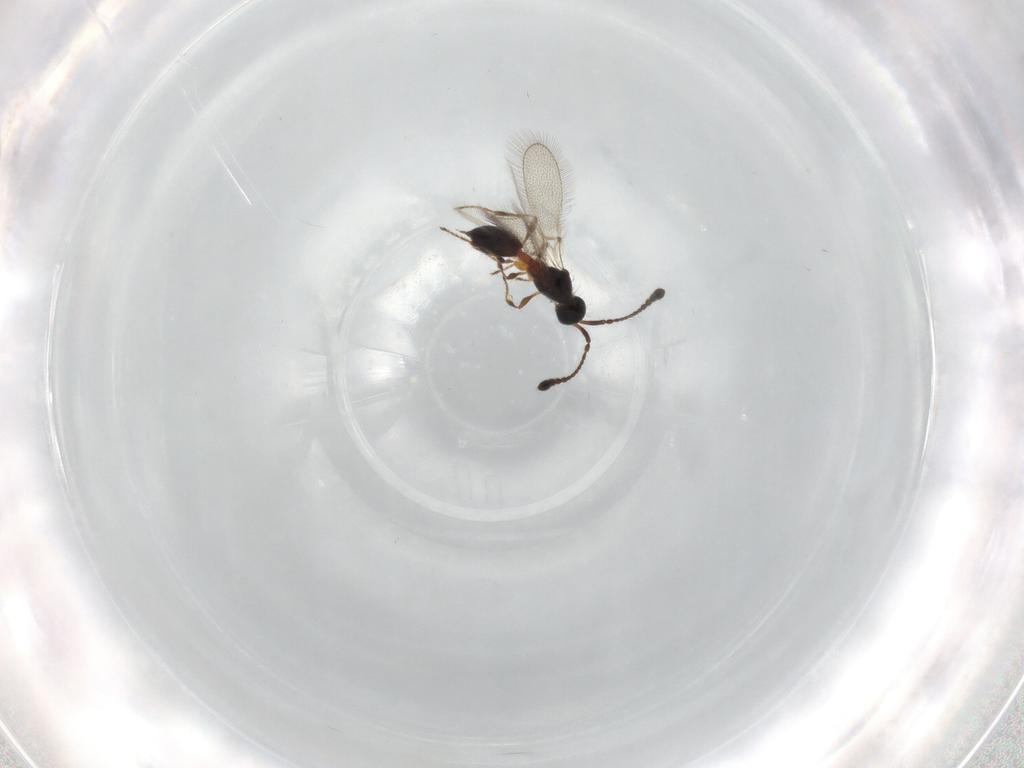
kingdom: Animalia
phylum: Arthropoda
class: Insecta
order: Hymenoptera
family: Diapriidae
